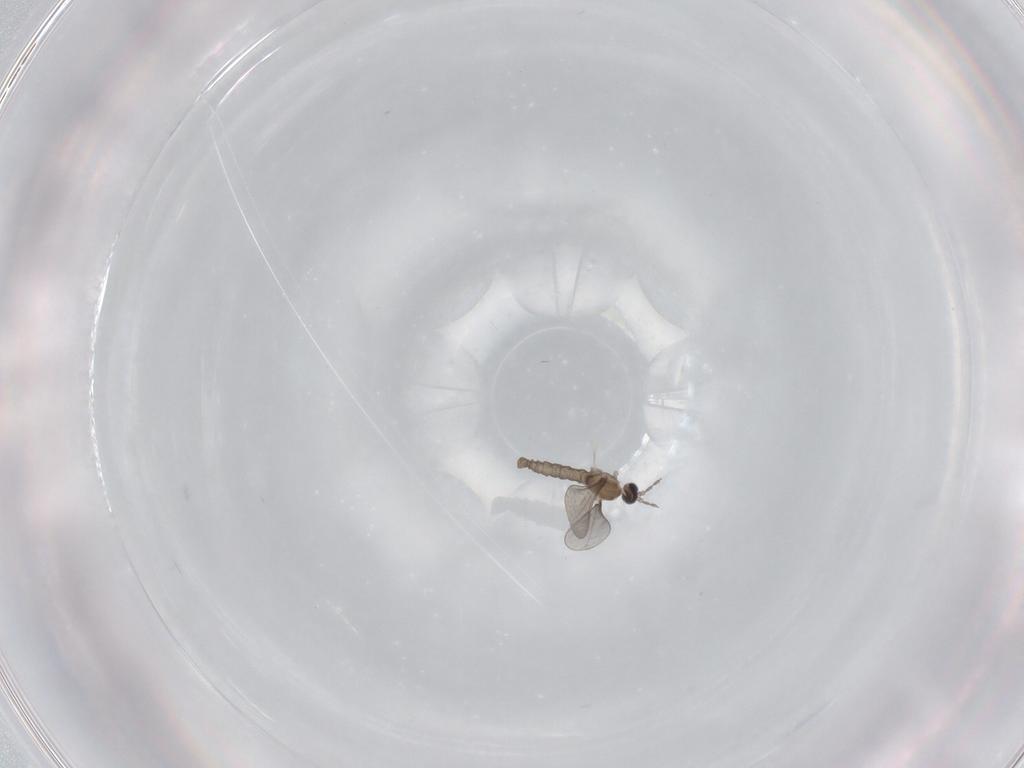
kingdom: Animalia
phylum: Arthropoda
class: Insecta
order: Diptera
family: Cecidomyiidae
